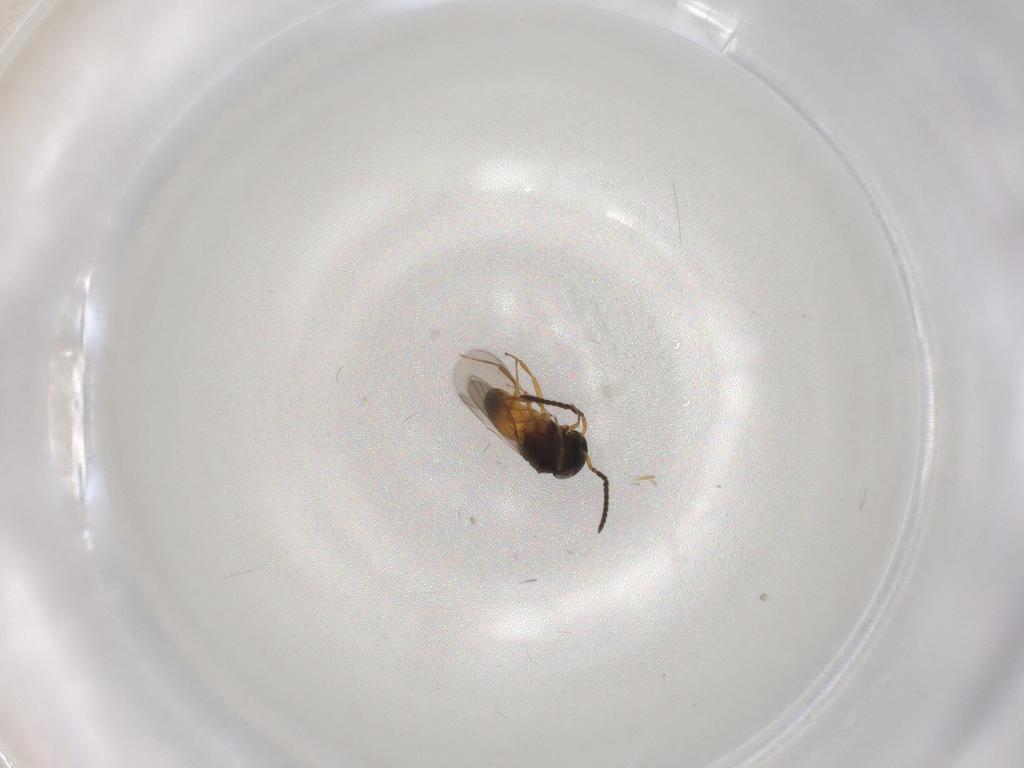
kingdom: Animalia
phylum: Arthropoda
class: Insecta
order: Hymenoptera
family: Scelionidae
